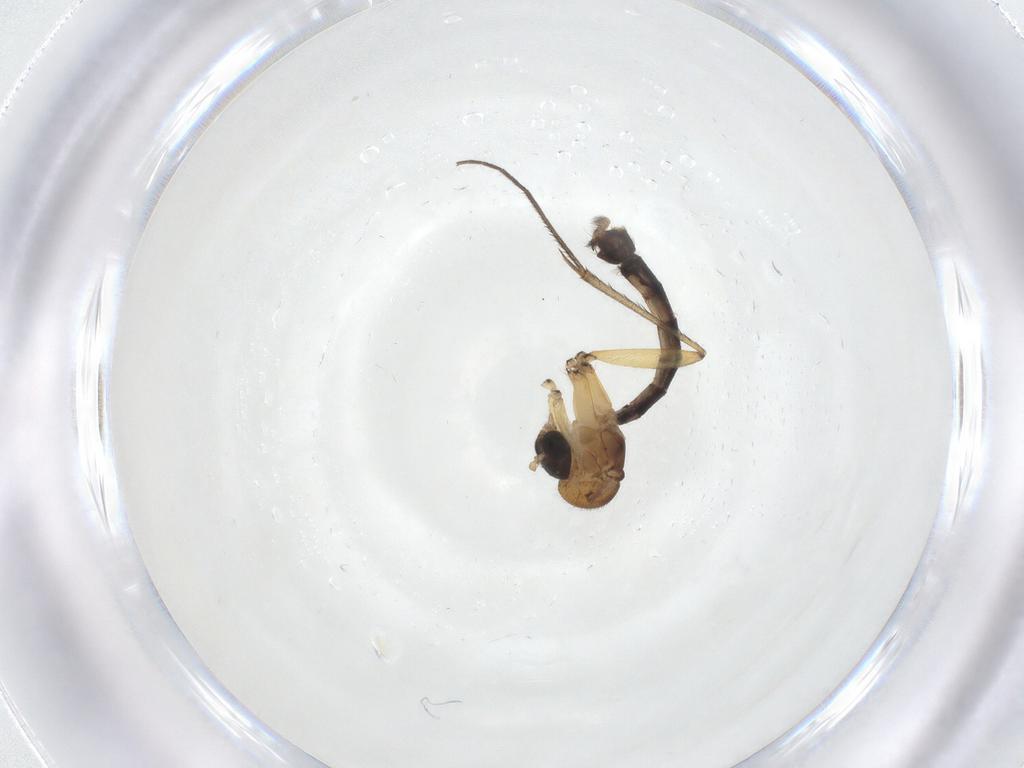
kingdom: Animalia
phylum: Arthropoda
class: Insecta
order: Diptera
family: Mycetophilidae
